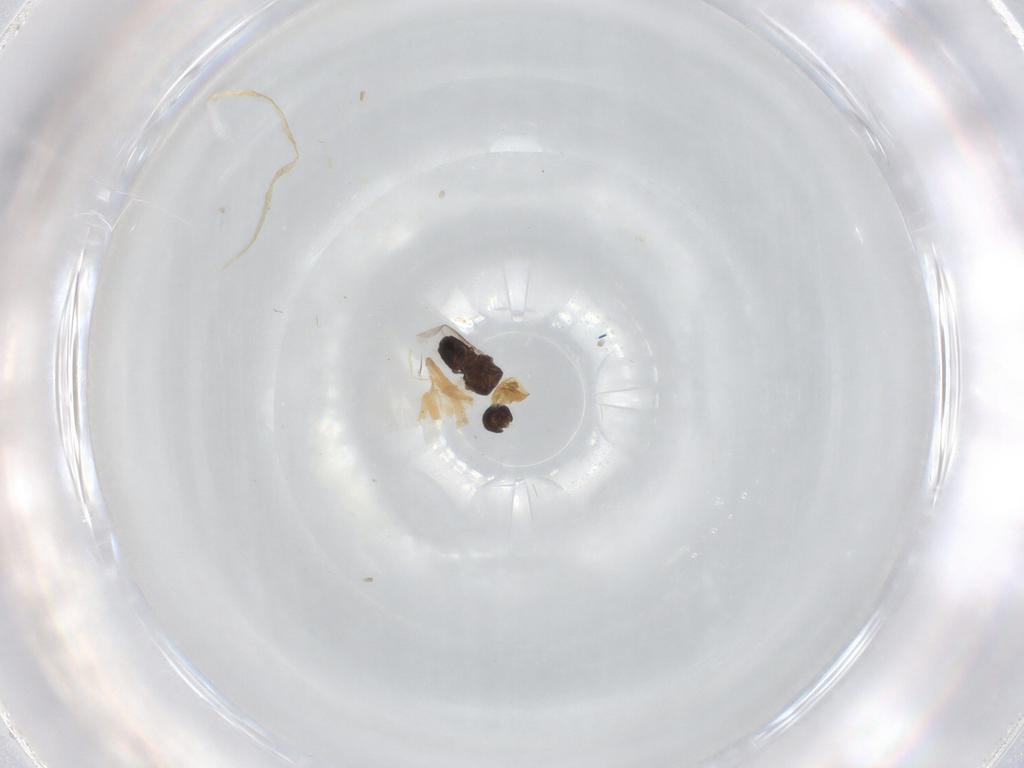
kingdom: Animalia
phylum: Arthropoda
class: Insecta
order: Diptera
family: Sphaeroceridae
